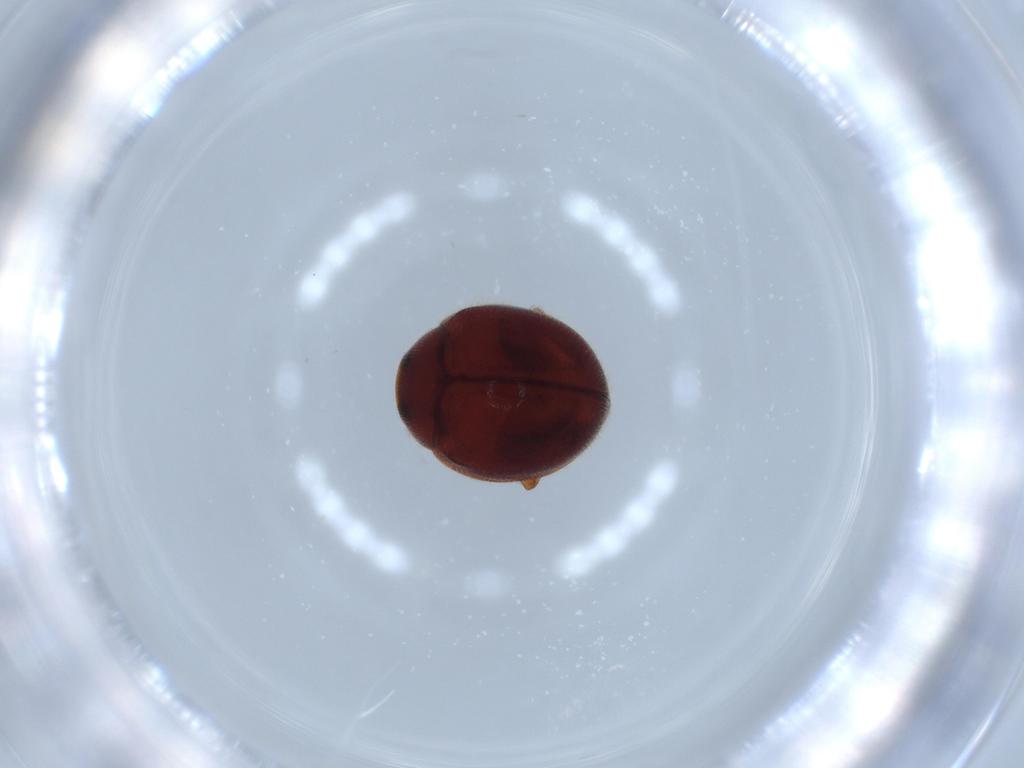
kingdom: Animalia
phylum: Arthropoda
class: Insecta
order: Coleoptera
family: Coccinellidae
